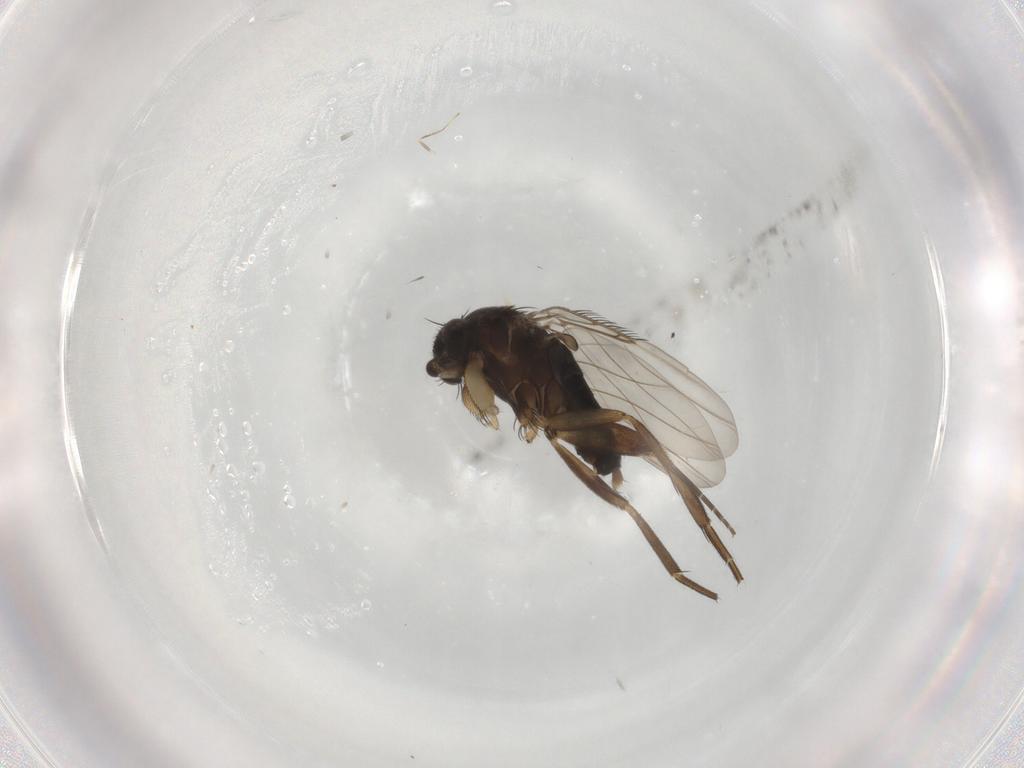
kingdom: Animalia
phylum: Arthropoda
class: Insecta
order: Diptera
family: Phoridae
